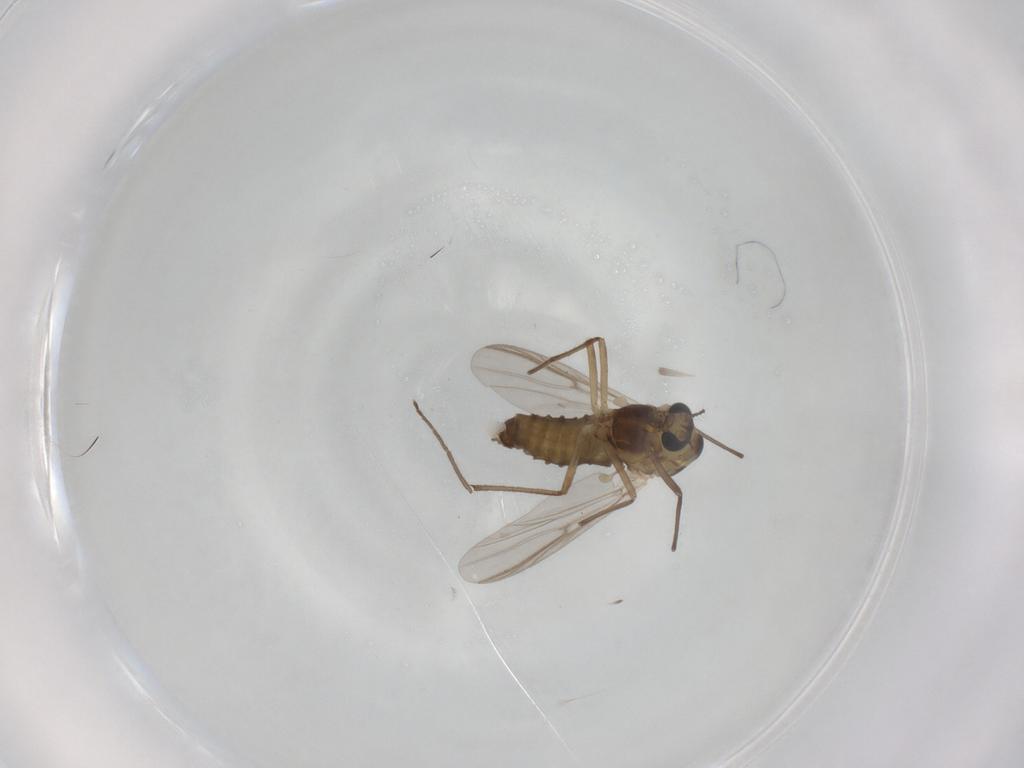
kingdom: Animalia
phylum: Arthropoda
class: Insecta
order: Diptera
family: Chironomidae
